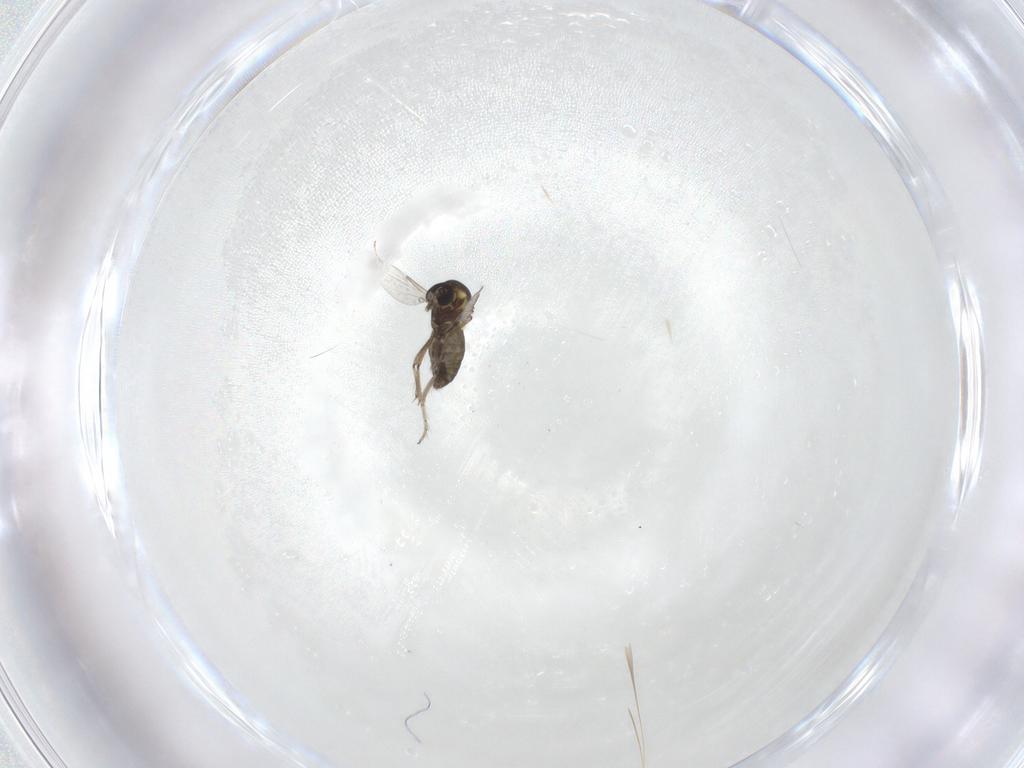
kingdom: Animalia
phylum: Arthropoda
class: Insecta
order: Diptera
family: Ceratopogonidae
